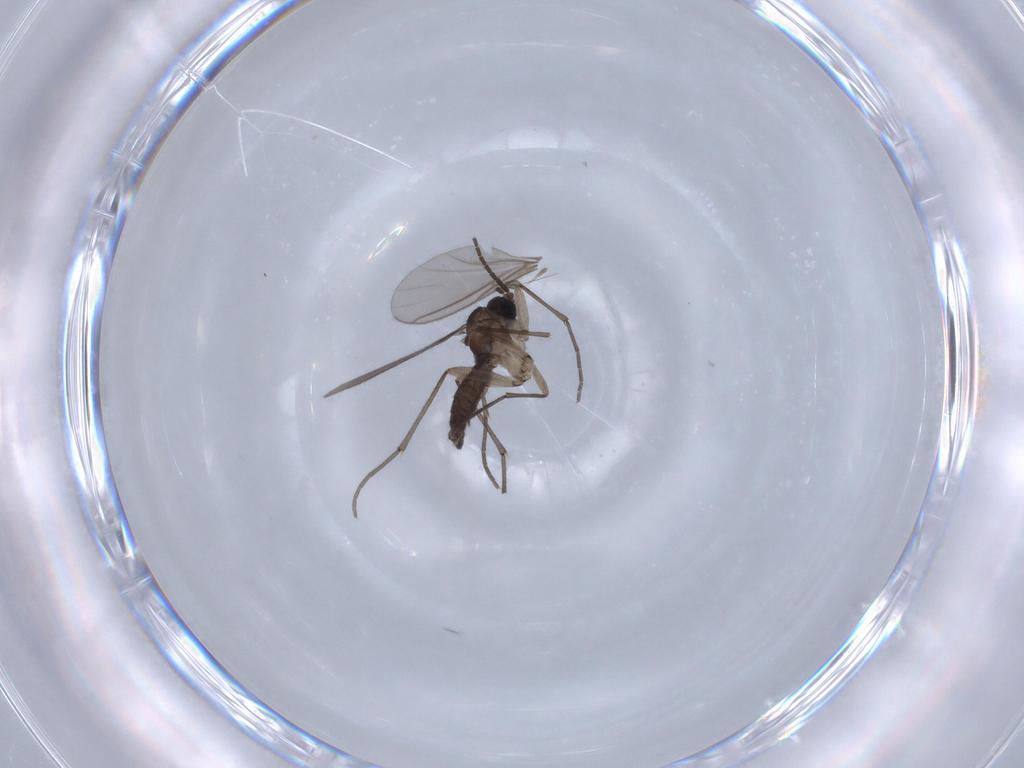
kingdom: Animalia
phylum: Arthropoda
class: Insecta
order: Diptera
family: Sciaridae
